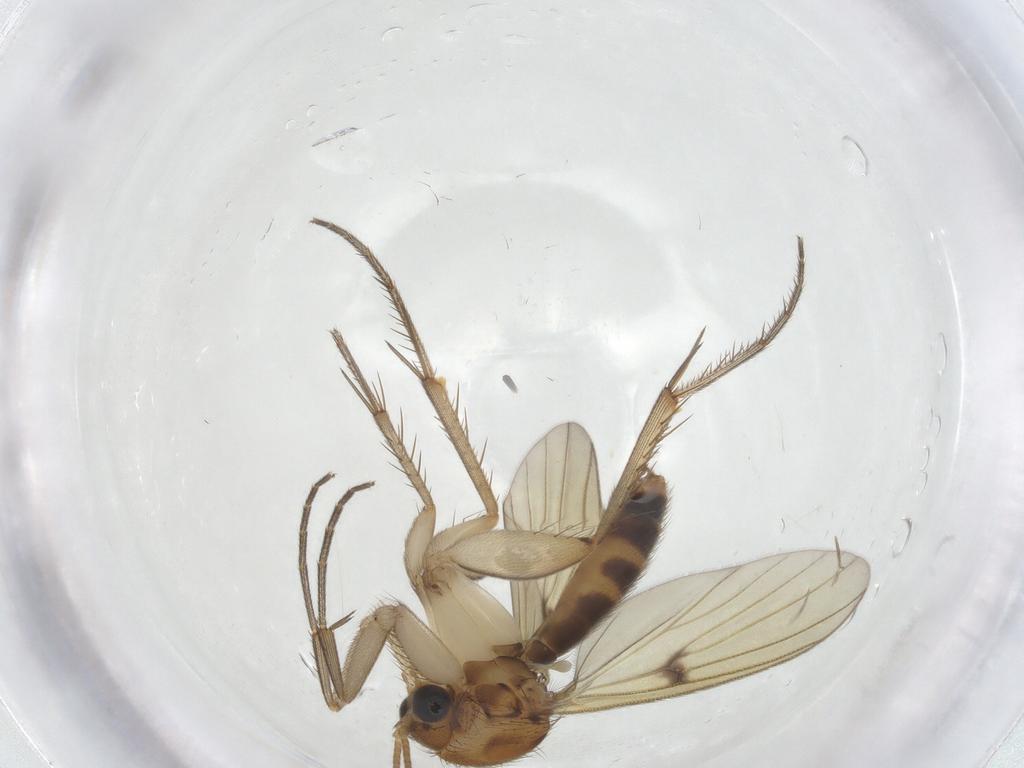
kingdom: Animalia
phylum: Arthropoda
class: Insecta
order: Diptera
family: Cecidomyiidae
